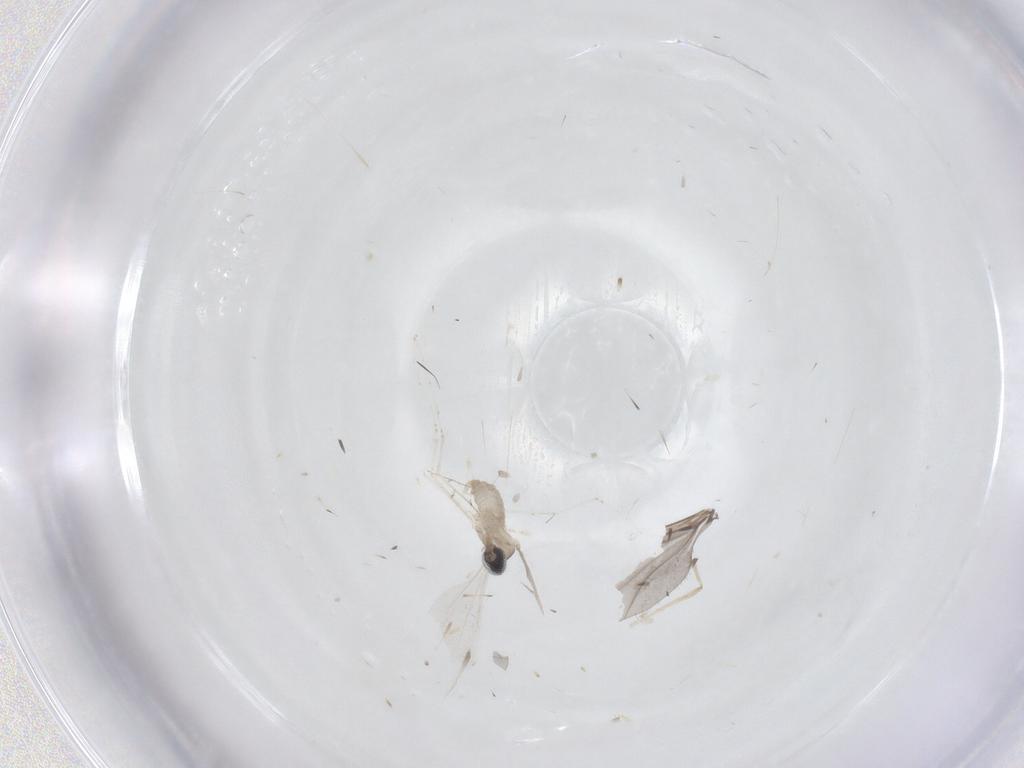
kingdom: Animalia
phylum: Arthropoda
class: Insecta
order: Diptera
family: Cecidomyiidae
